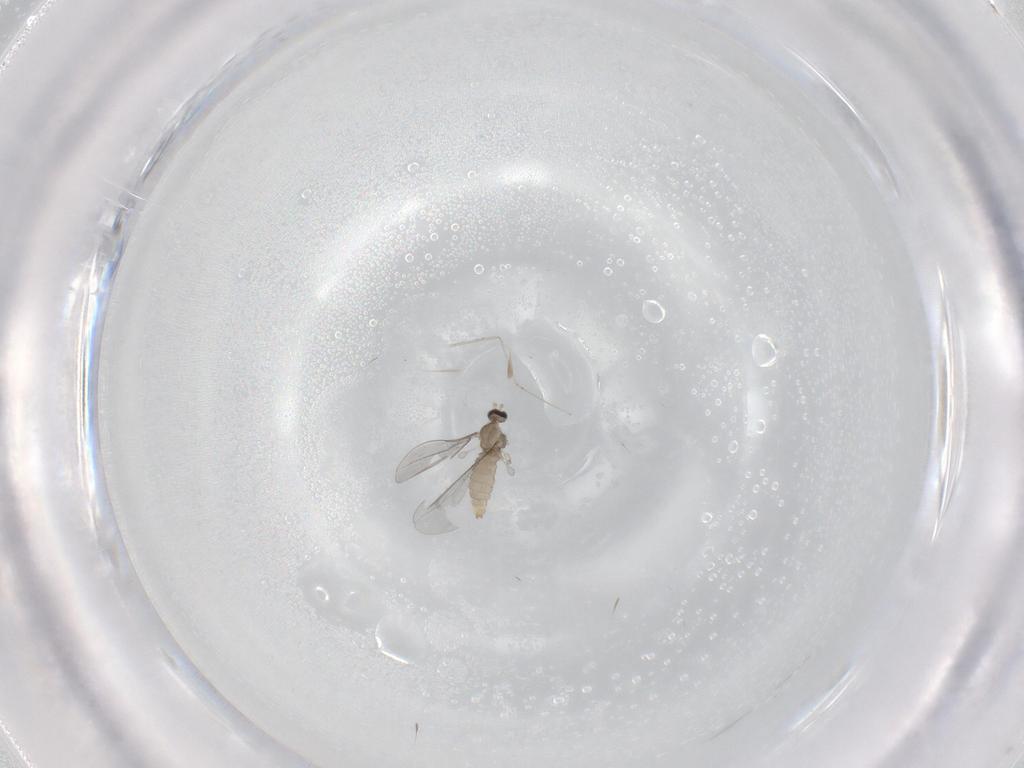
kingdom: Animalia
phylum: Arthropoda
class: Insecta
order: Diptera
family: Cecidomyiidae
